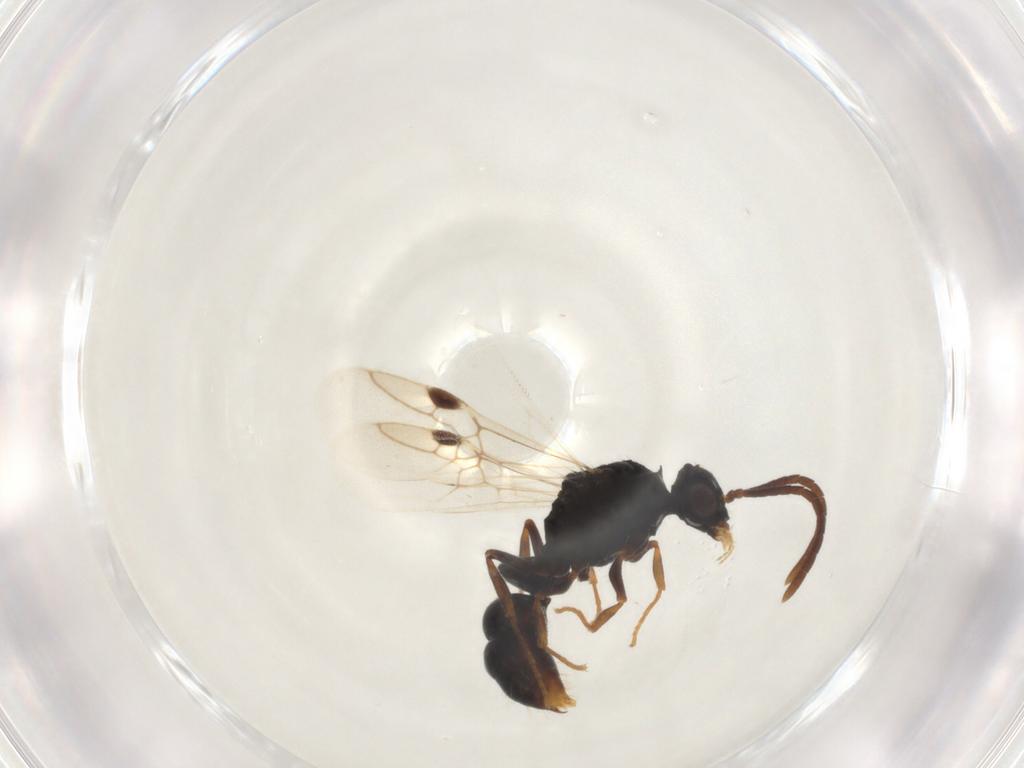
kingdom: Animalia
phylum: Arthropoda
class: Insecta
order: Hymenoptera
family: Formicidae
